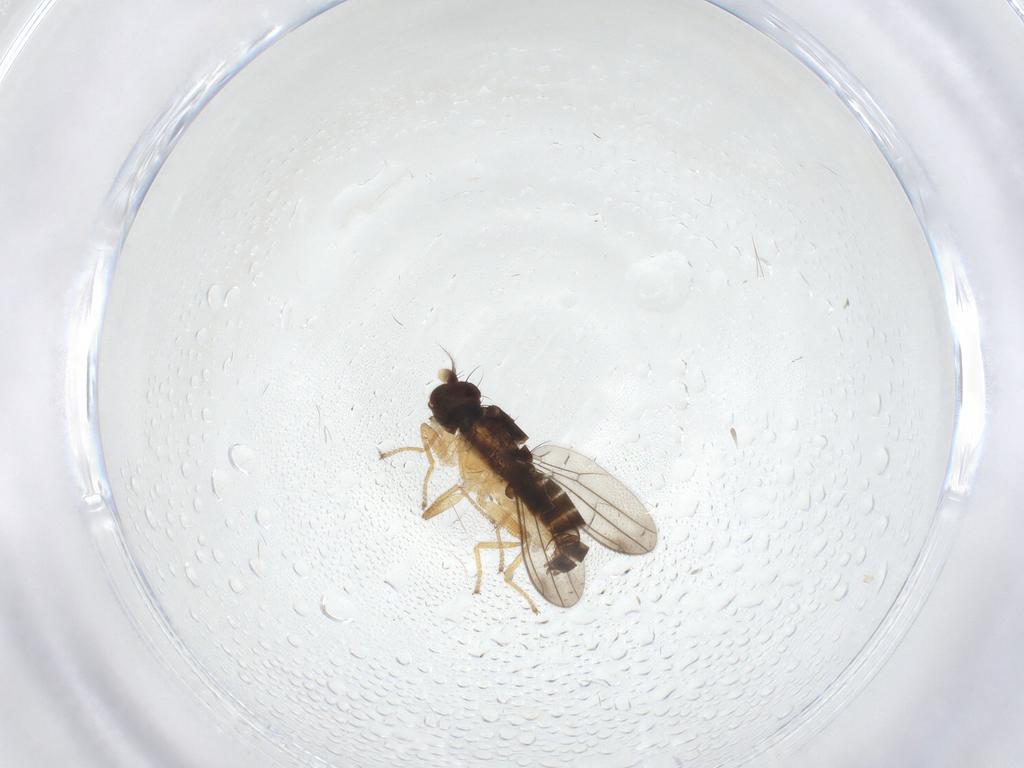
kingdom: Animalia
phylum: Arthropoda
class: Insecta
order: Diptera
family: Anthomyzidae
